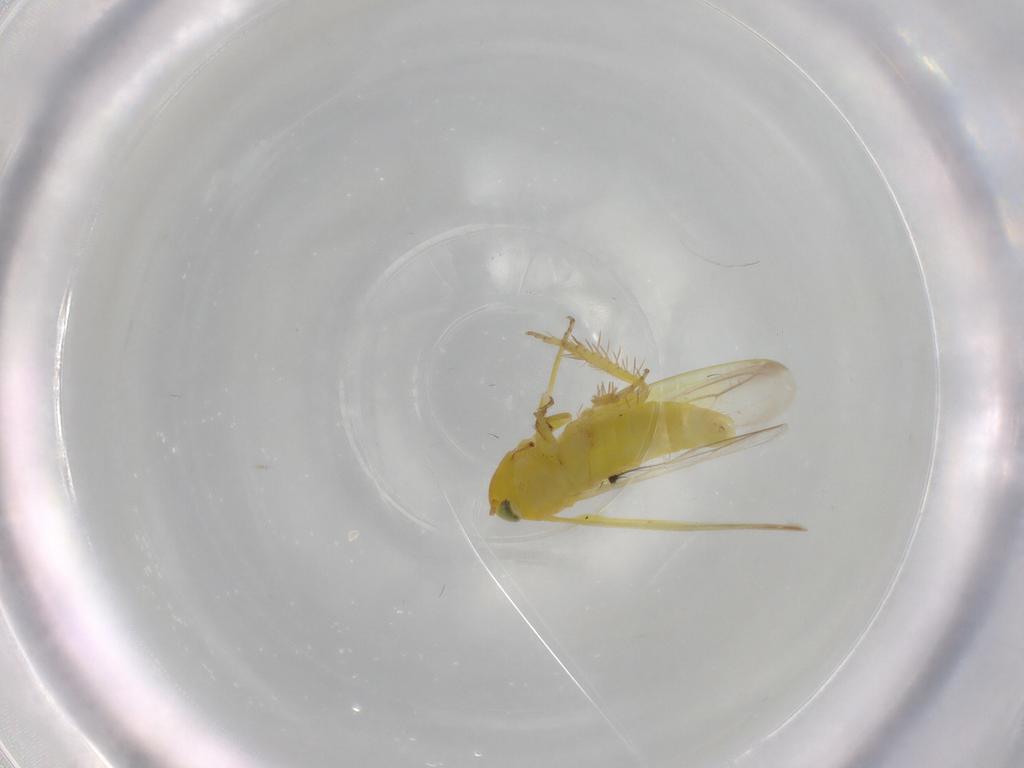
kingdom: Animalia
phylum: Arthropoda
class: Insecta
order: Hemiptera
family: Cicadellidae
